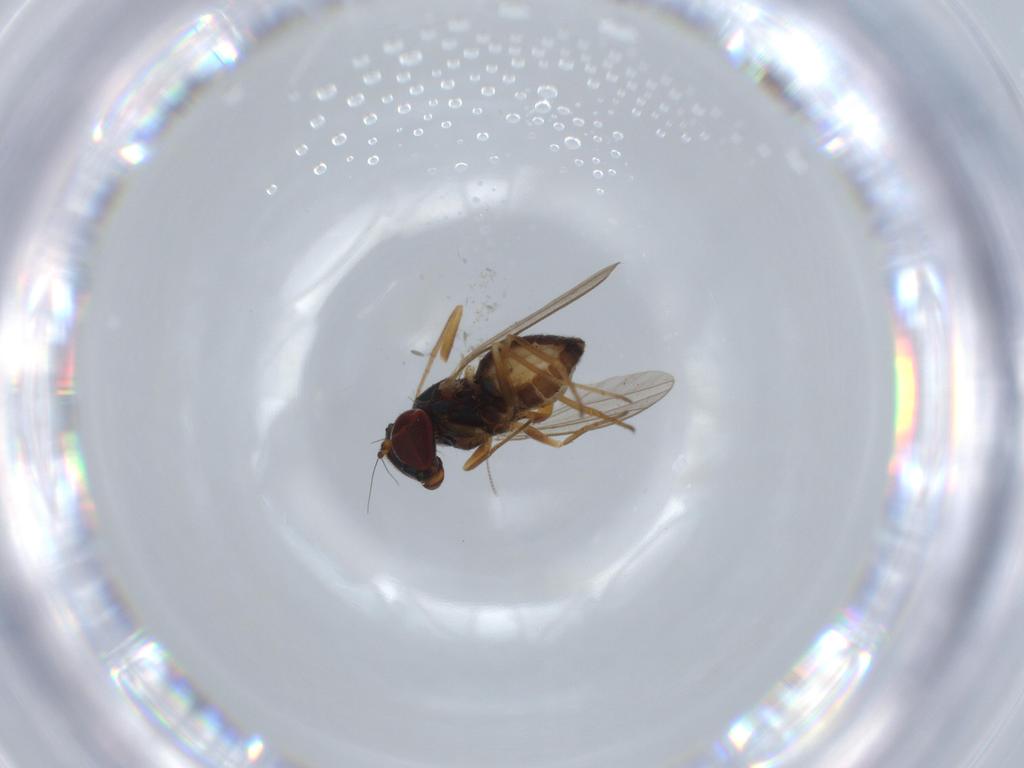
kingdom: Animalia
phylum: Arthropoda
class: Insecta
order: Diptera
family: Chironomidae
